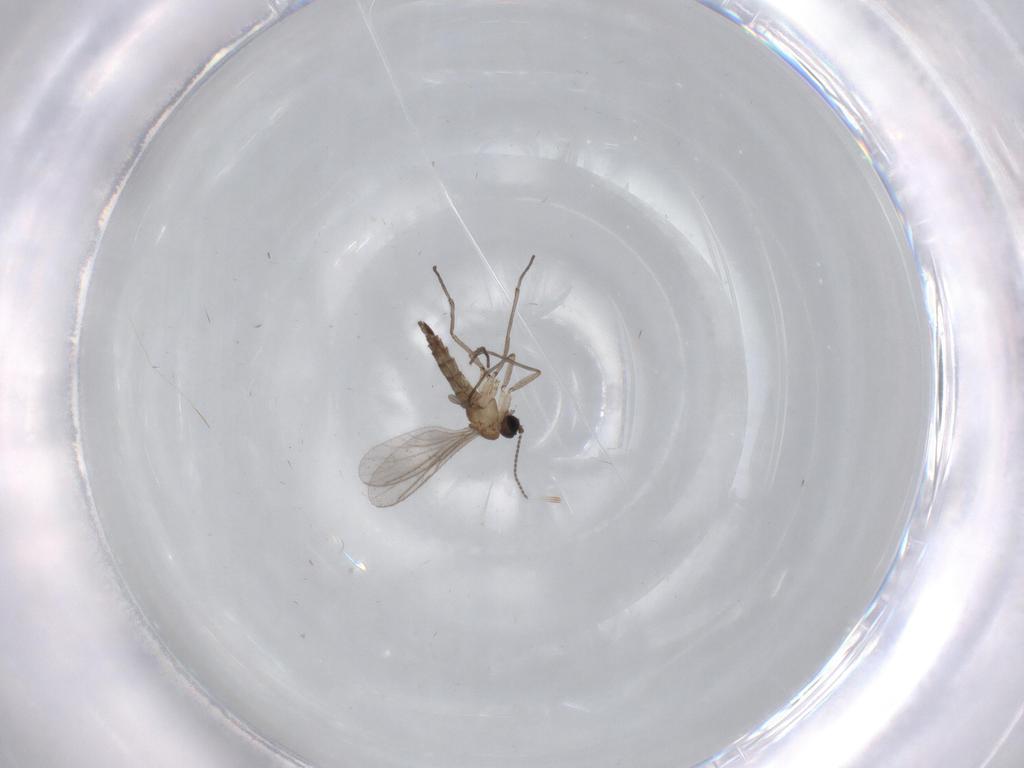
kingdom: Animalia
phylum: Arthropoda
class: Insecta
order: Diptera
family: Sciaridae
